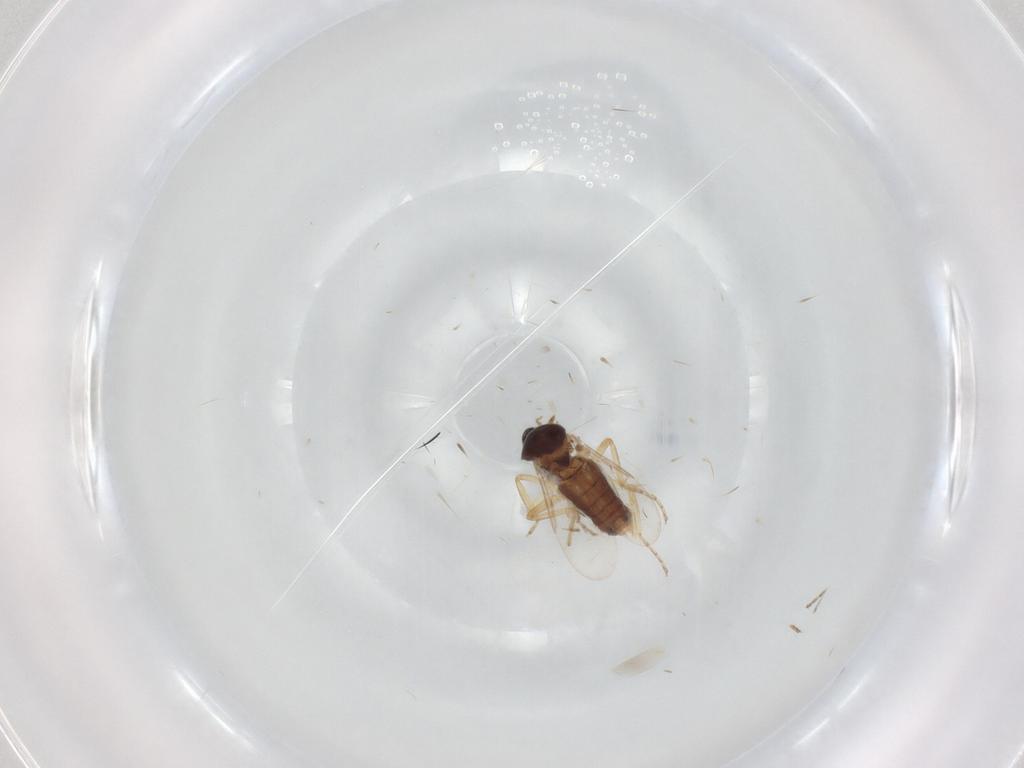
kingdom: Animalia
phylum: Arthropoda
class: Insecta
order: Diptera
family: Ceratopogonidae
